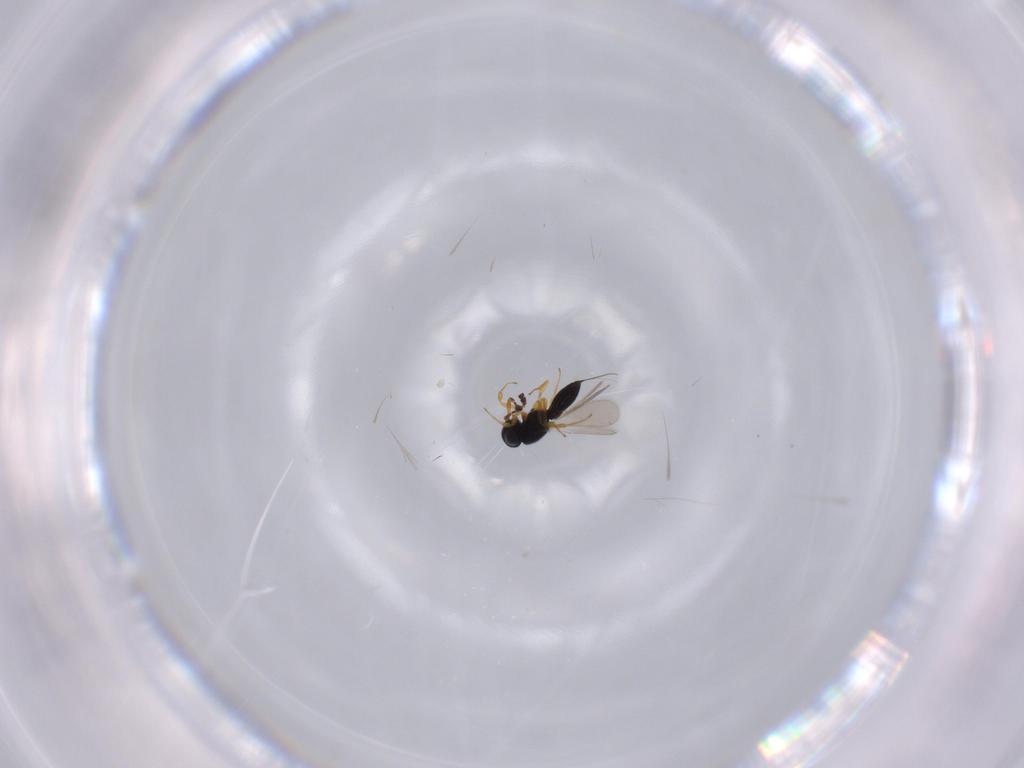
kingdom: Animalia
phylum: Arthropoda
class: Insecta
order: Hymenoptera
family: Scelionidae
